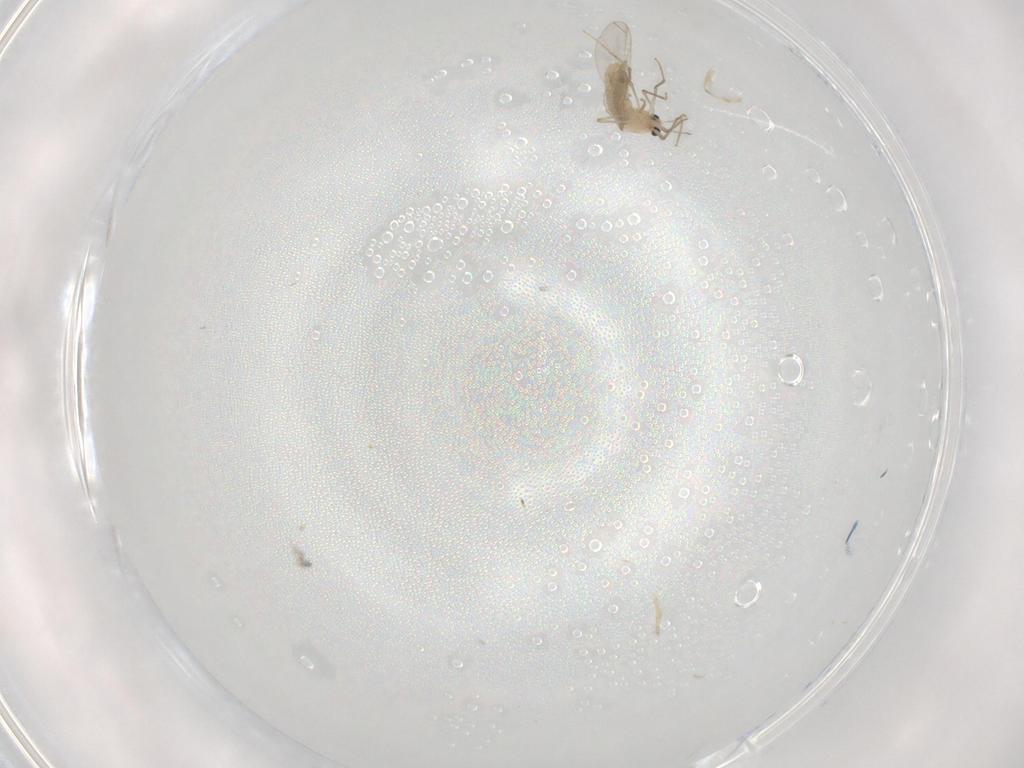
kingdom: Animalia
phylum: Arthropoda
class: Insecta
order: Diptera
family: Chironomidae
